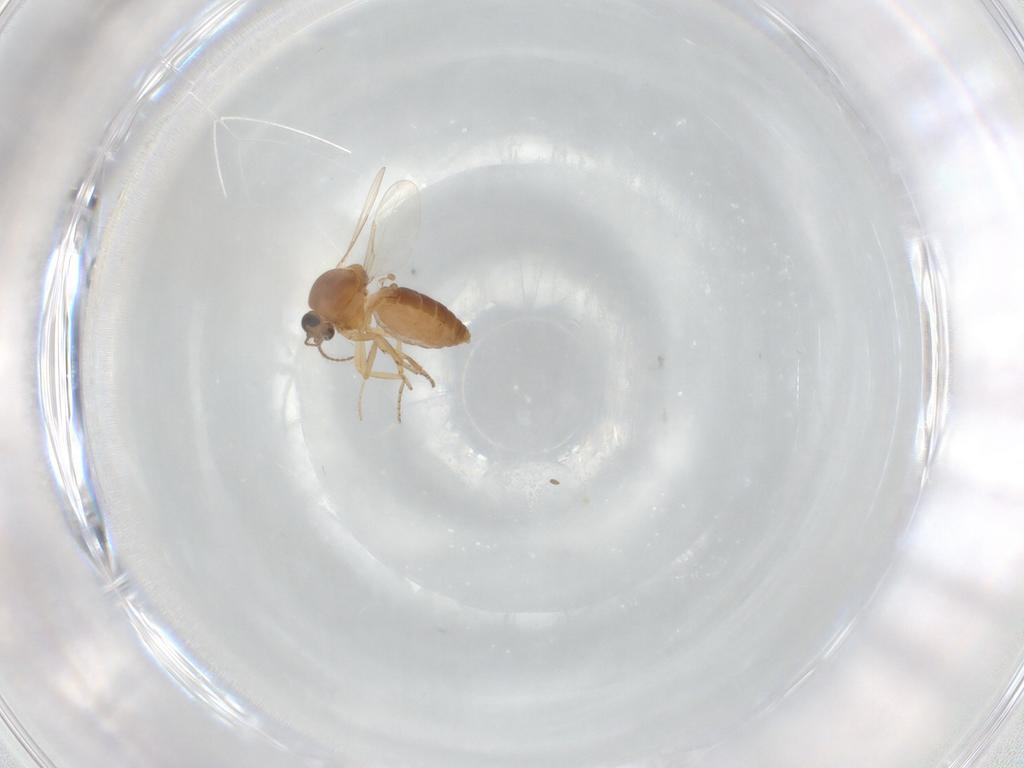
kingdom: Animalia
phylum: Arthropoda
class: Insecta
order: Diptera
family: Ceratopogonidae
